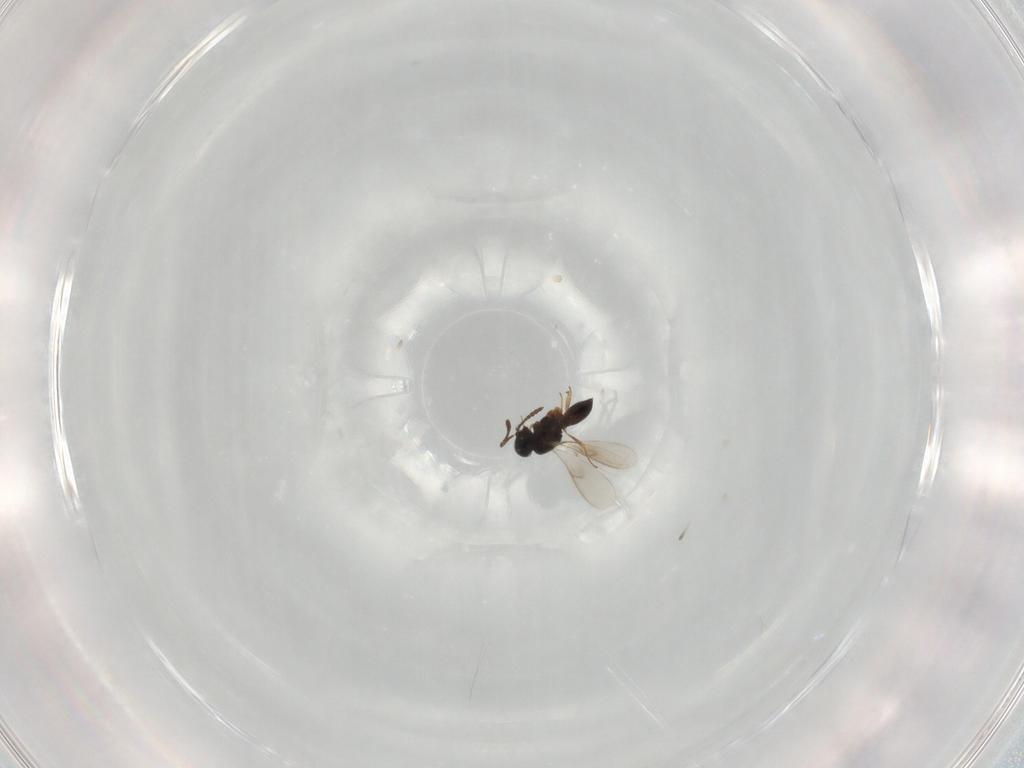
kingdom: Animalia
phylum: Arthropoda
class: Insecta
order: Hymenoptera
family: Scelionidae
